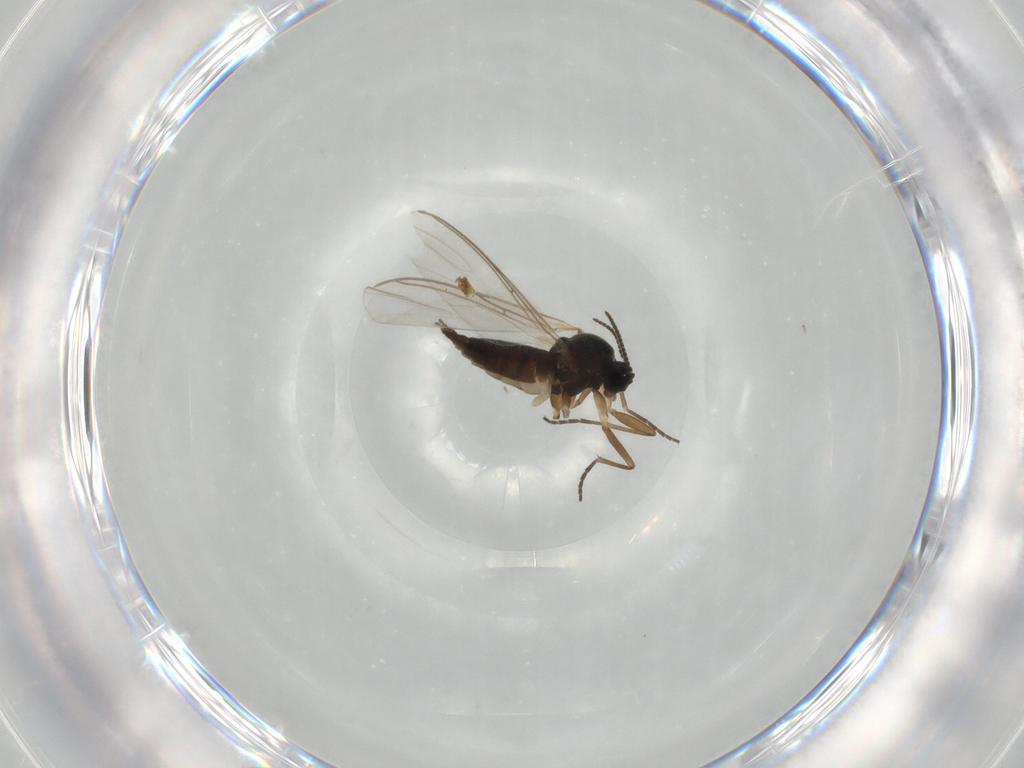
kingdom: Animalia
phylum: Arthropoda
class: Insecta
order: Diptera
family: Sciaridae
